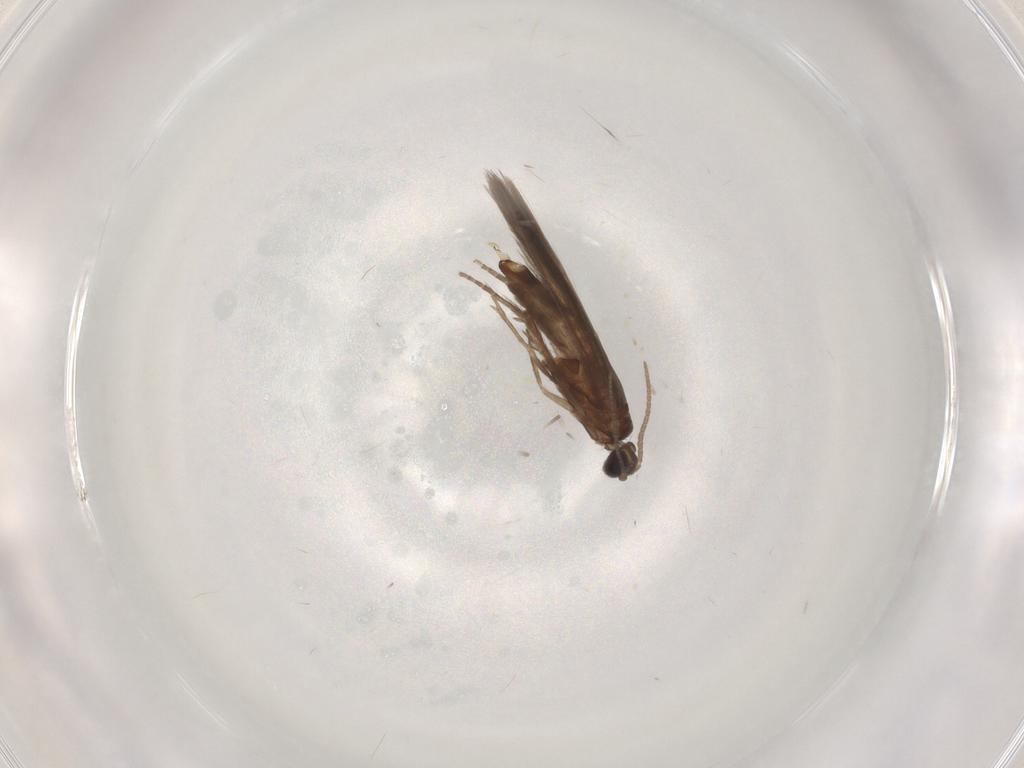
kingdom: Animalia
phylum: Arthropoda
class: Insecta
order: Trichoptera
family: Hydroptilidae
